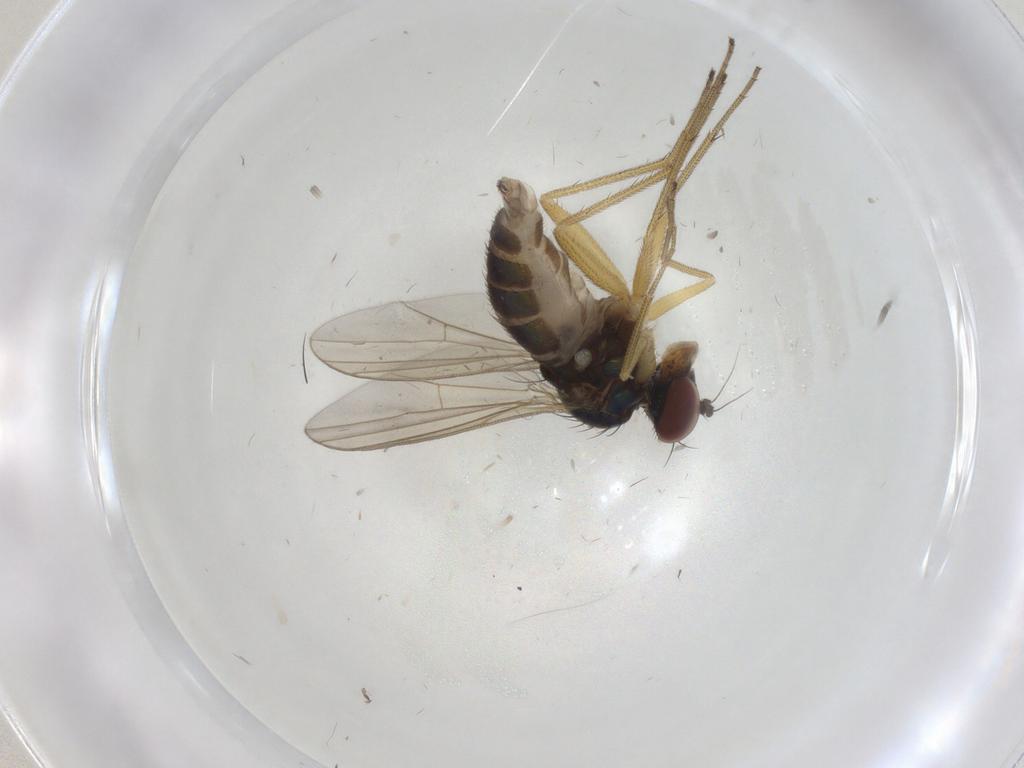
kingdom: Animalia
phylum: Arthropoda
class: Insecta
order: Diptera
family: Dolichopodidae
